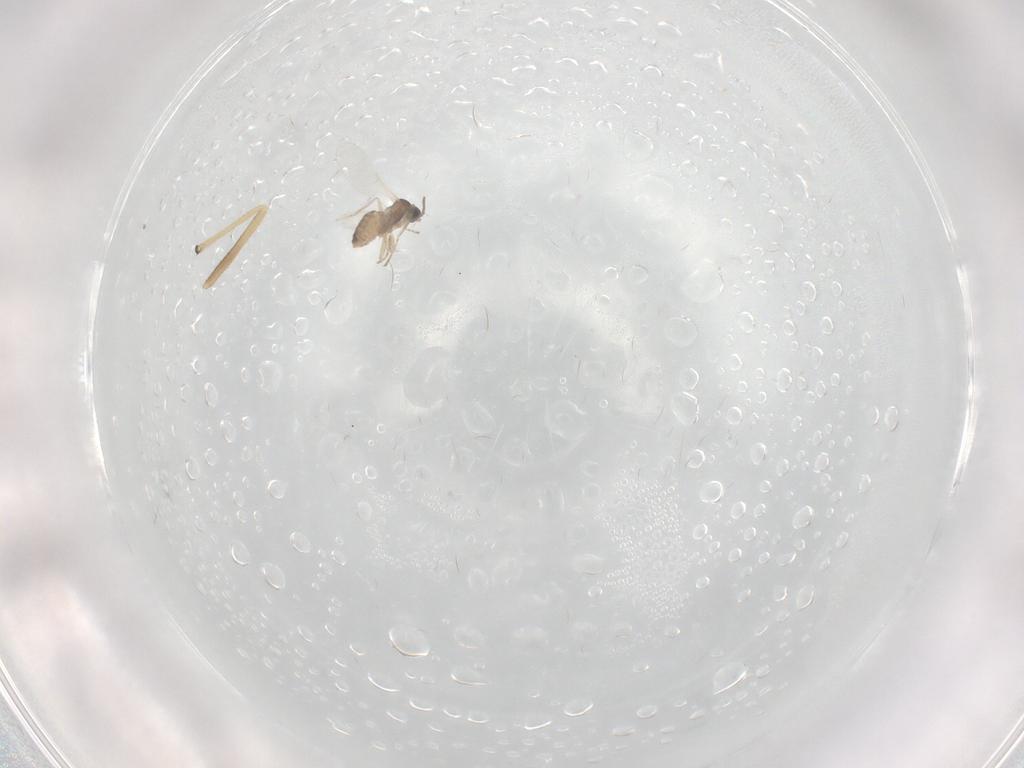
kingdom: Animalia
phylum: Arthropoda
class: Insecta
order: Diptera
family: Cecidomyiidae
